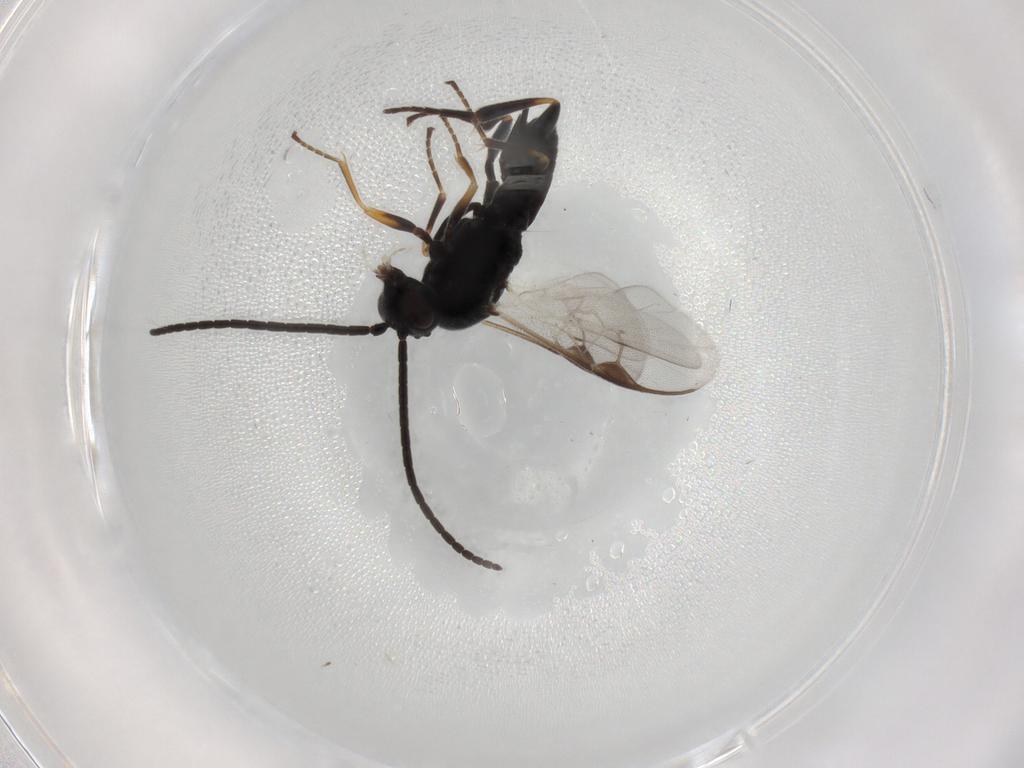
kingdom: Animalia
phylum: Arthropoda
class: Insecta
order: Hymenoptera
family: Braconidae
